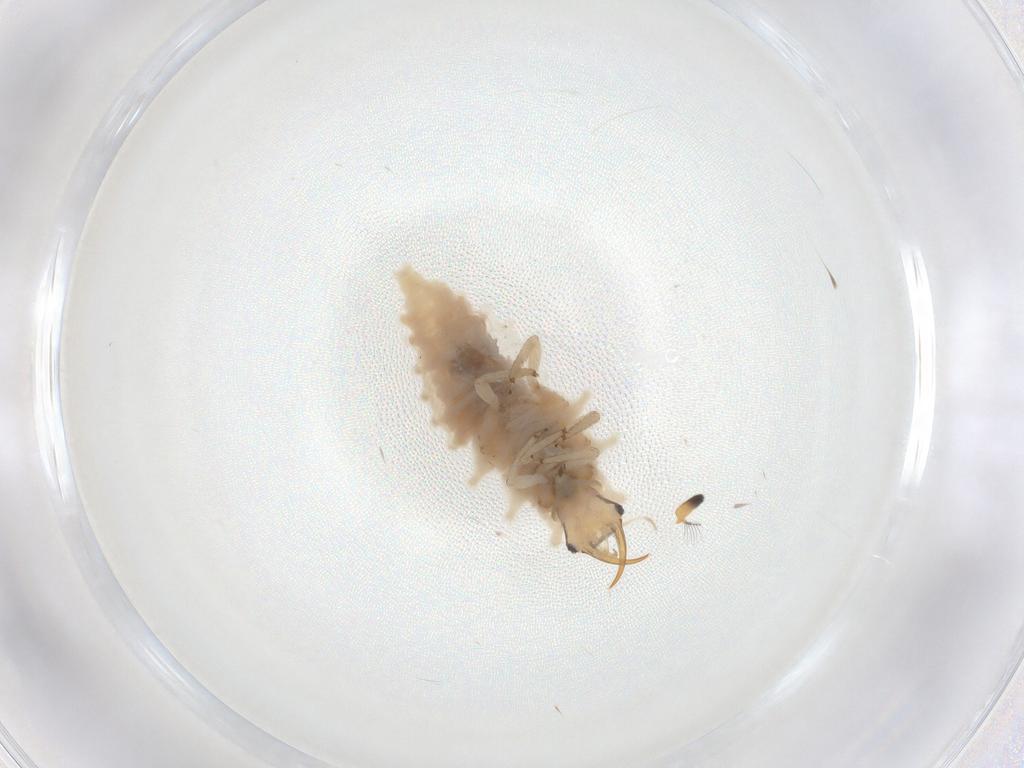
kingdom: Animalia
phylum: Arthropoda
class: Insecta
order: Neuroptera
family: Chrysopidae
